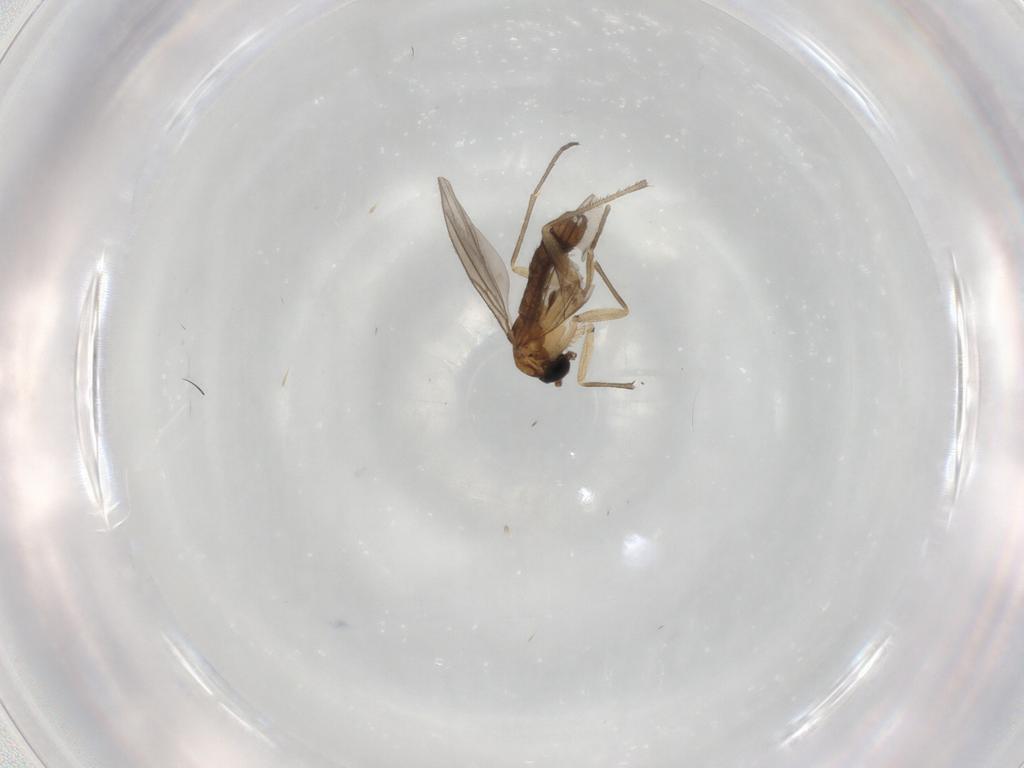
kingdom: Animalia
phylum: Arthropoda
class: Insecta
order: Diptera
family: Sciaridae
